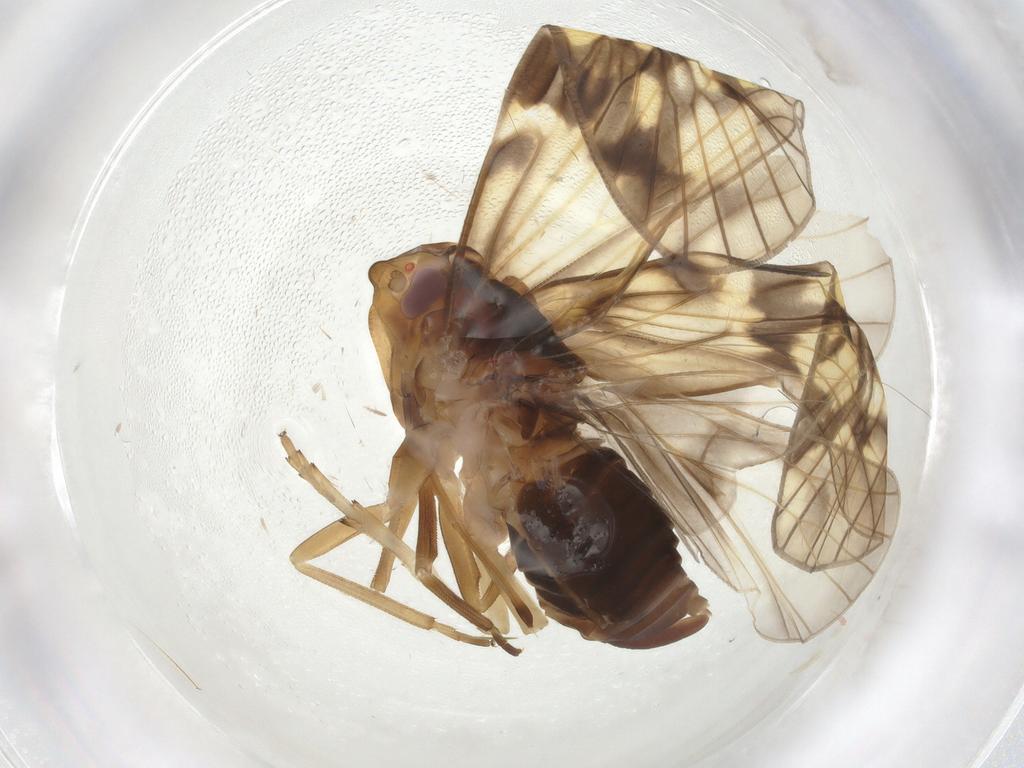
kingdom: Animalia
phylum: Arthropoda
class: Insecta
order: Hemiptera
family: Cixiidae
